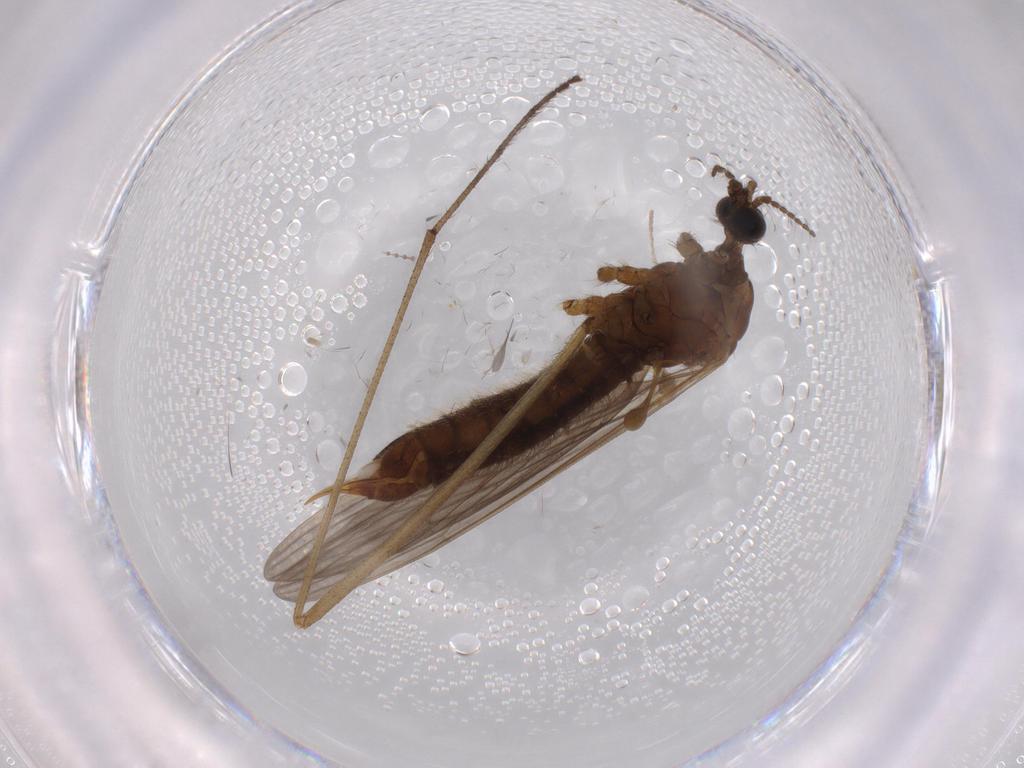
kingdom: Animalia
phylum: Arthropoda
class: Insecta
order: Diptera
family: Limoniidae
